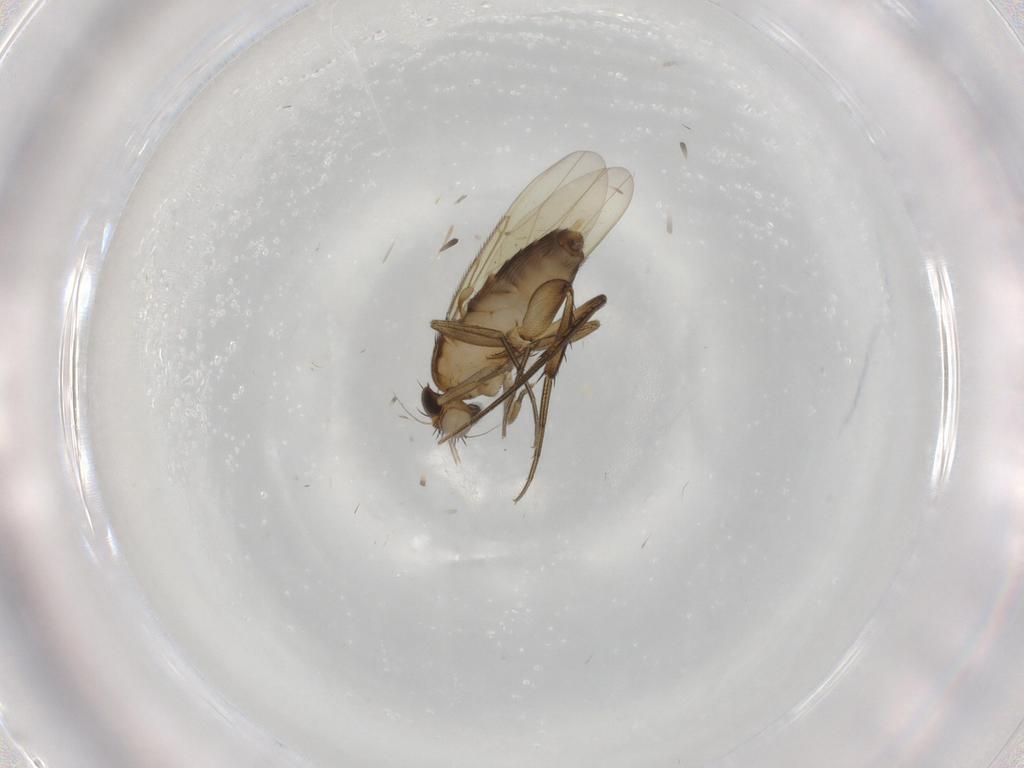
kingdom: Animalia
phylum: Arthropoda
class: Insecta
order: Diptera
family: Phoridae
